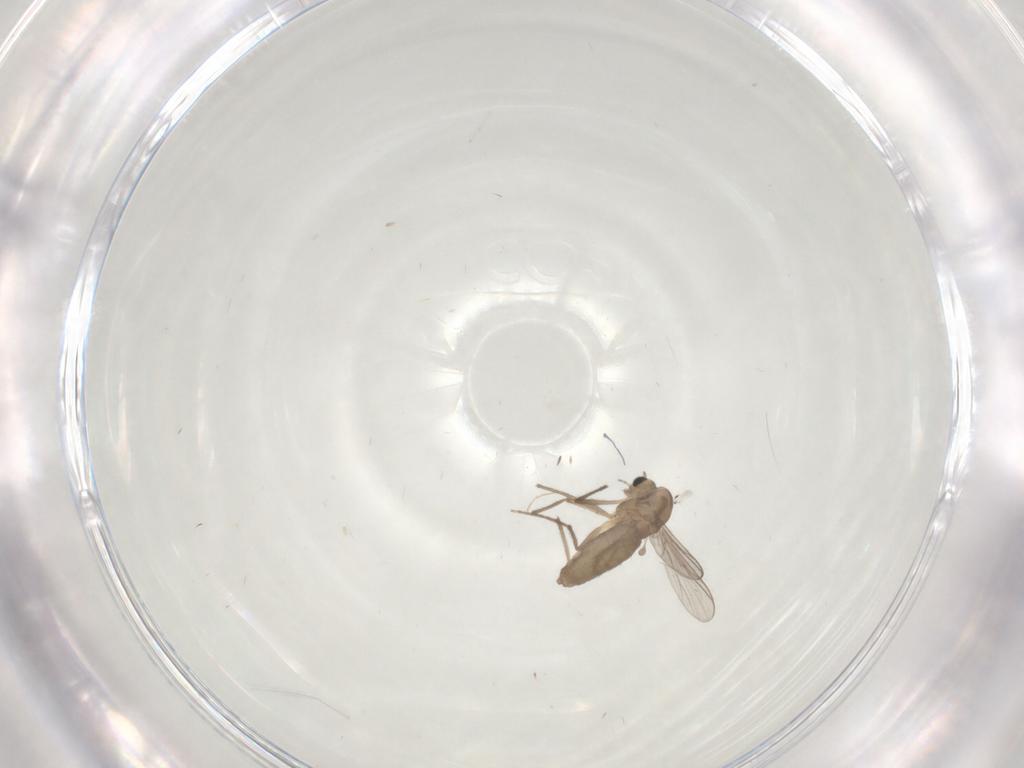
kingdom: Animalia
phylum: Arthropoda
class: Insecta
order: Diptera
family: Chironomidae
